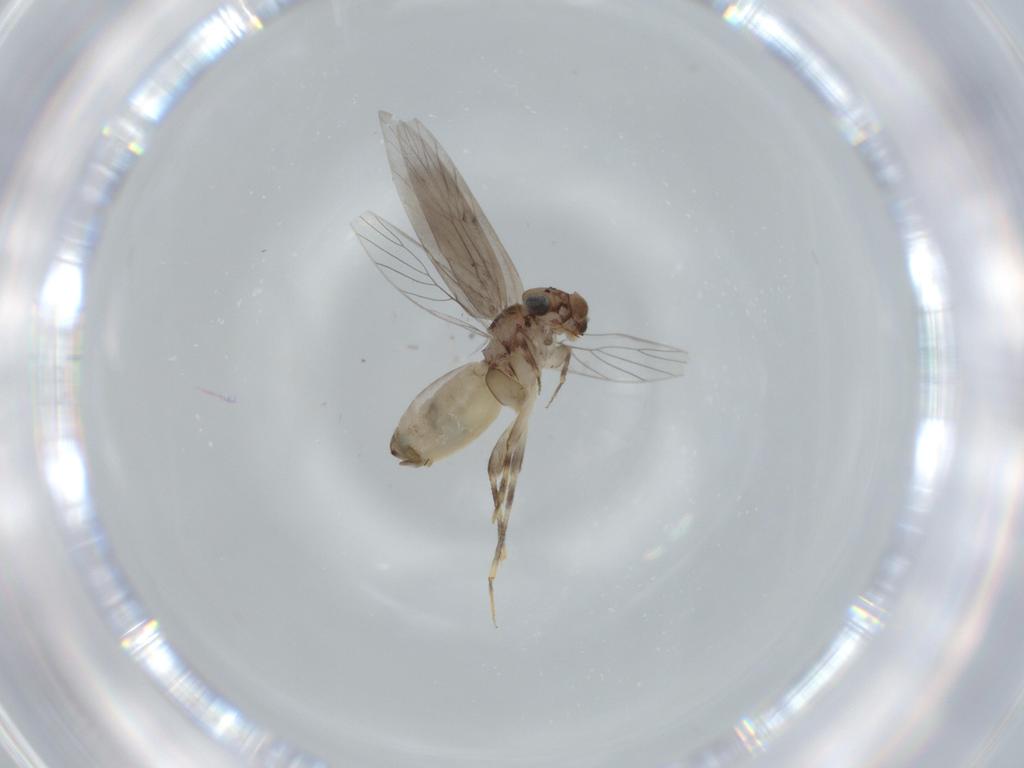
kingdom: Animalia
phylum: Arthropoda
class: Insecta
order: Psocodea
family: Lepidopsocidae
